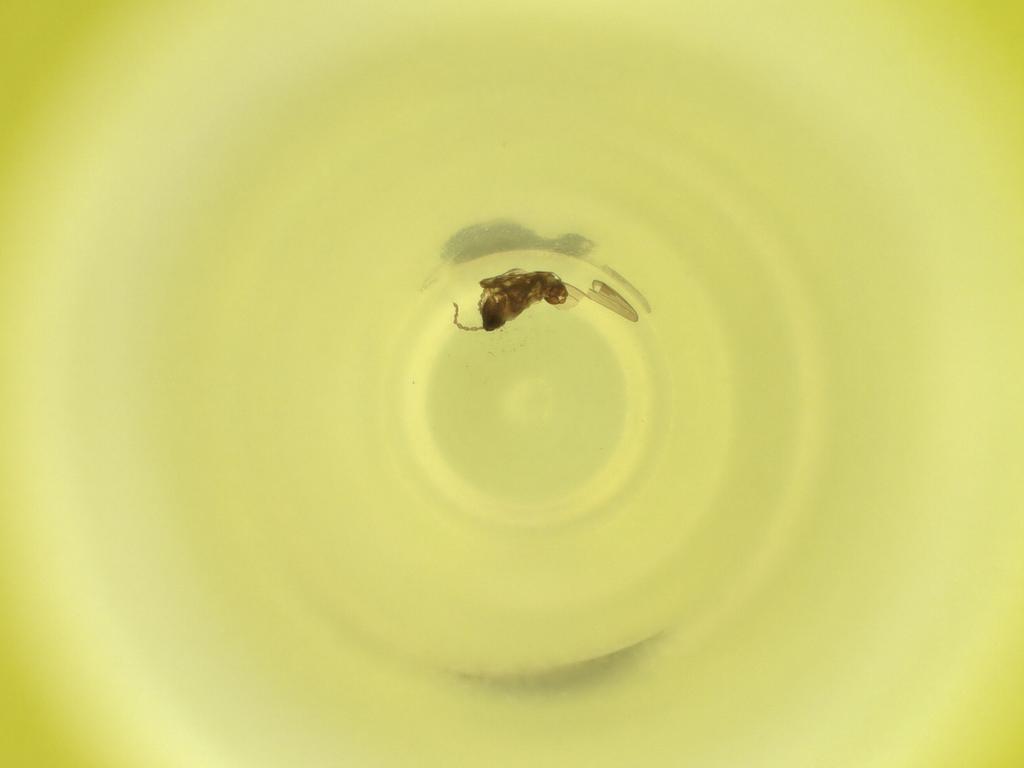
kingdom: Animalia
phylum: Arthropoda
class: Insecta
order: Diptera
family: Cecidomyiidae
